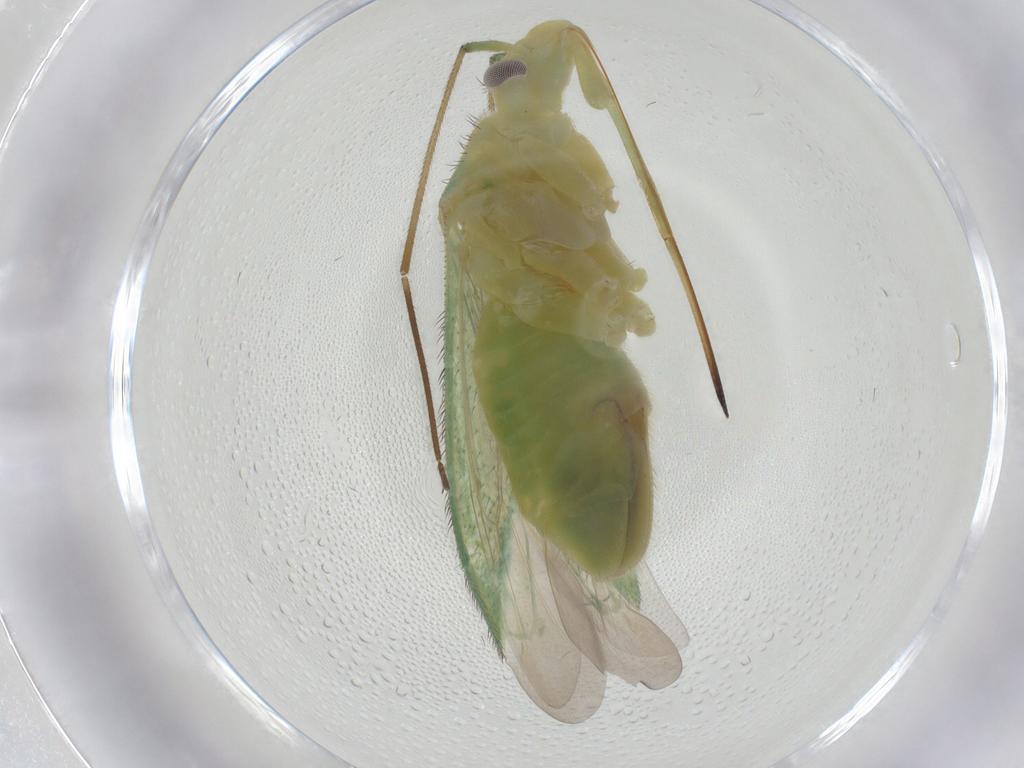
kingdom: Animalia
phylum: Arthropoda
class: Insecta
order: Hemiptera
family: Miridae
